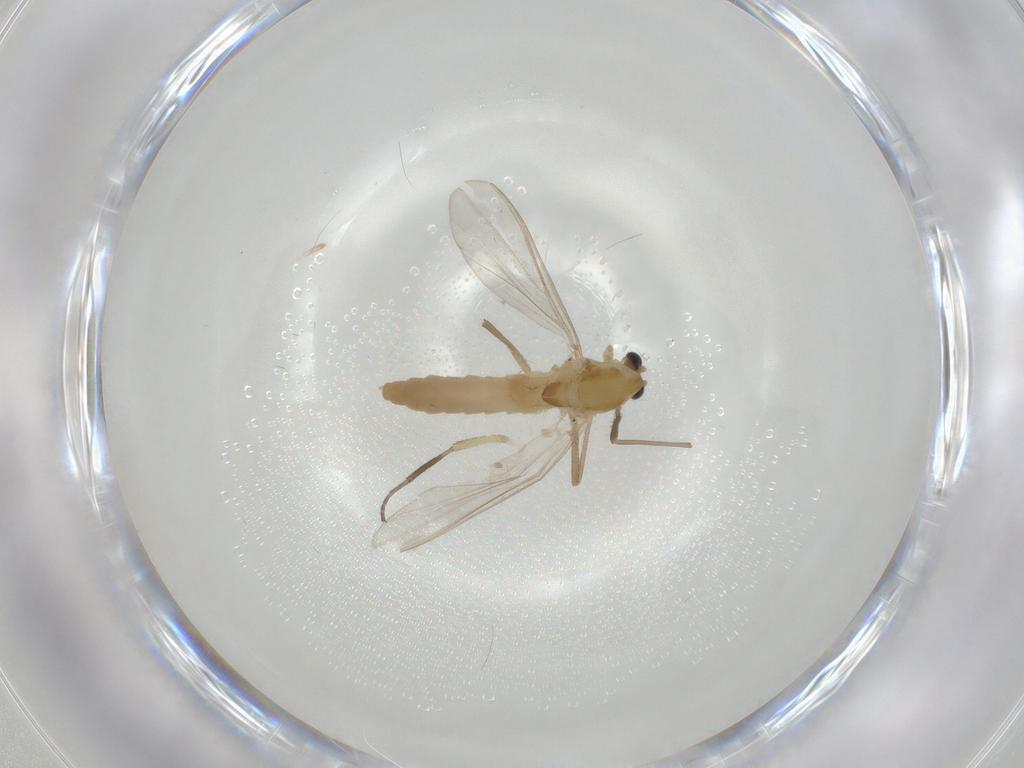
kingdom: Animalia
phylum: Arthropoda
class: Insecta
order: Diptera
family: Chironomidae
